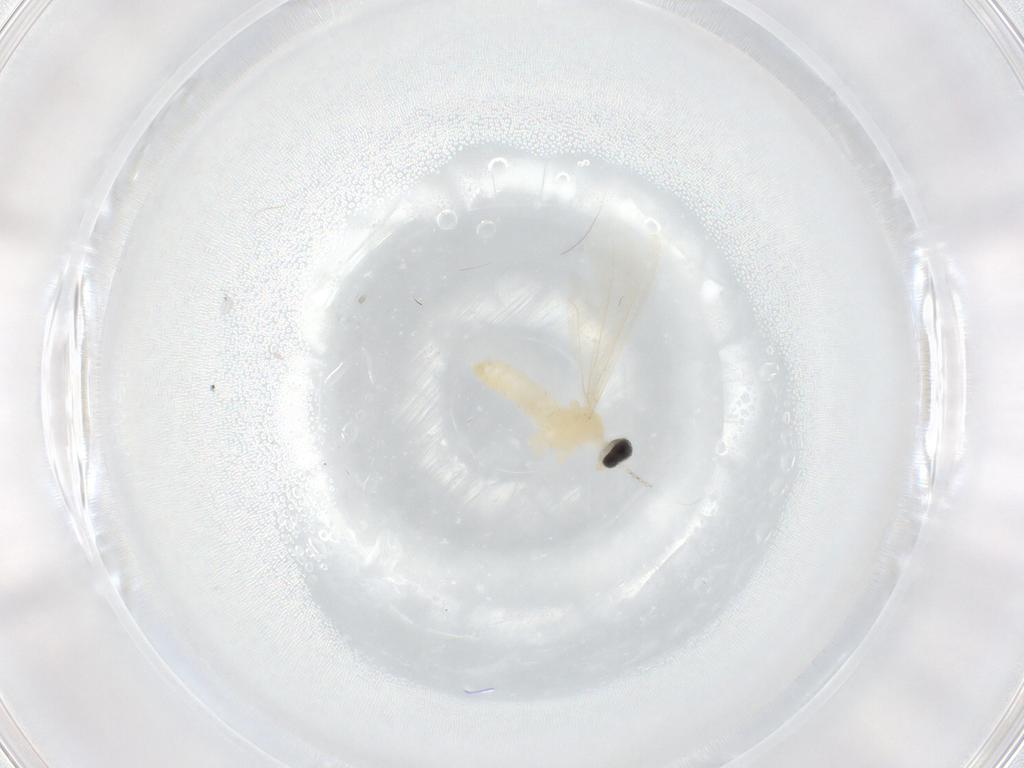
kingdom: Animalia
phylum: Arthropoda
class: Insecta
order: Diptera
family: Cecidomyiidae
